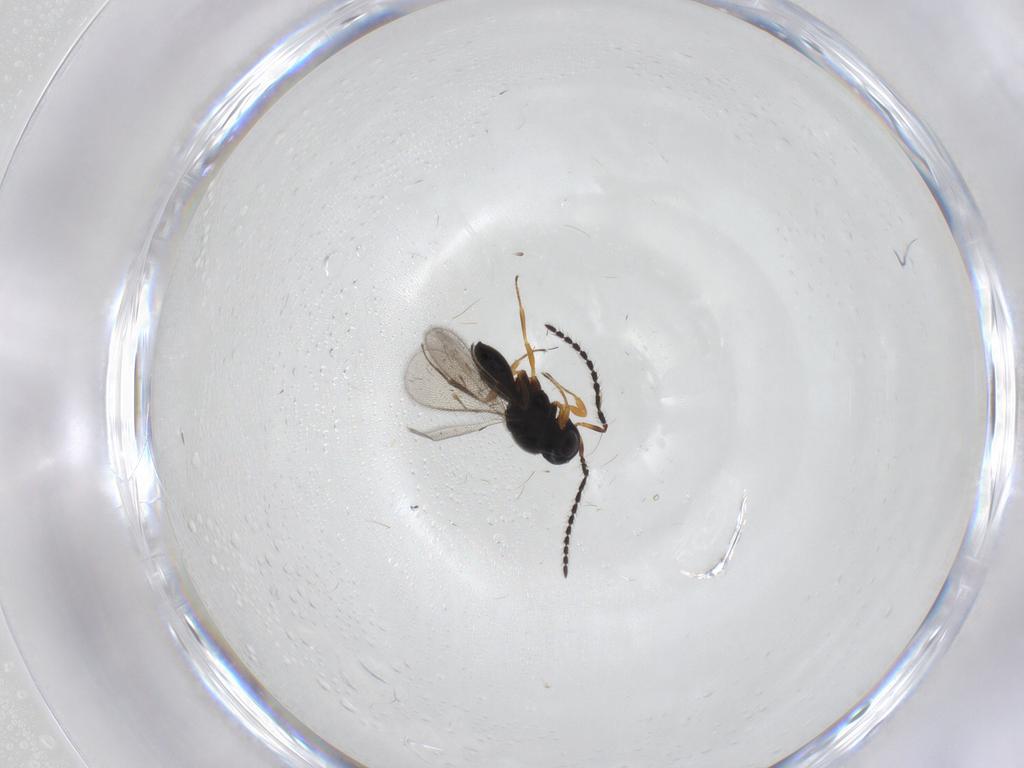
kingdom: Animalia
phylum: Arthropoda
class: Insecta
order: Hymenoptera
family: Scelionidae
